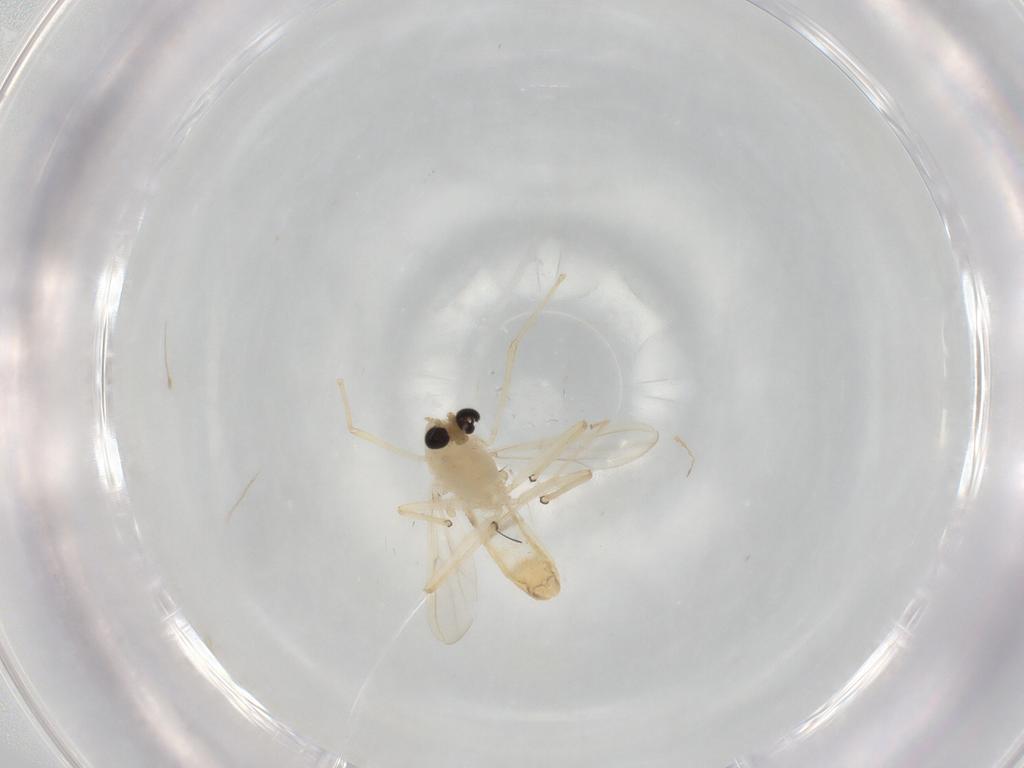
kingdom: Animalia
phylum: Arthropoda
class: Insecta
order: Diptera
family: Chironomidae
